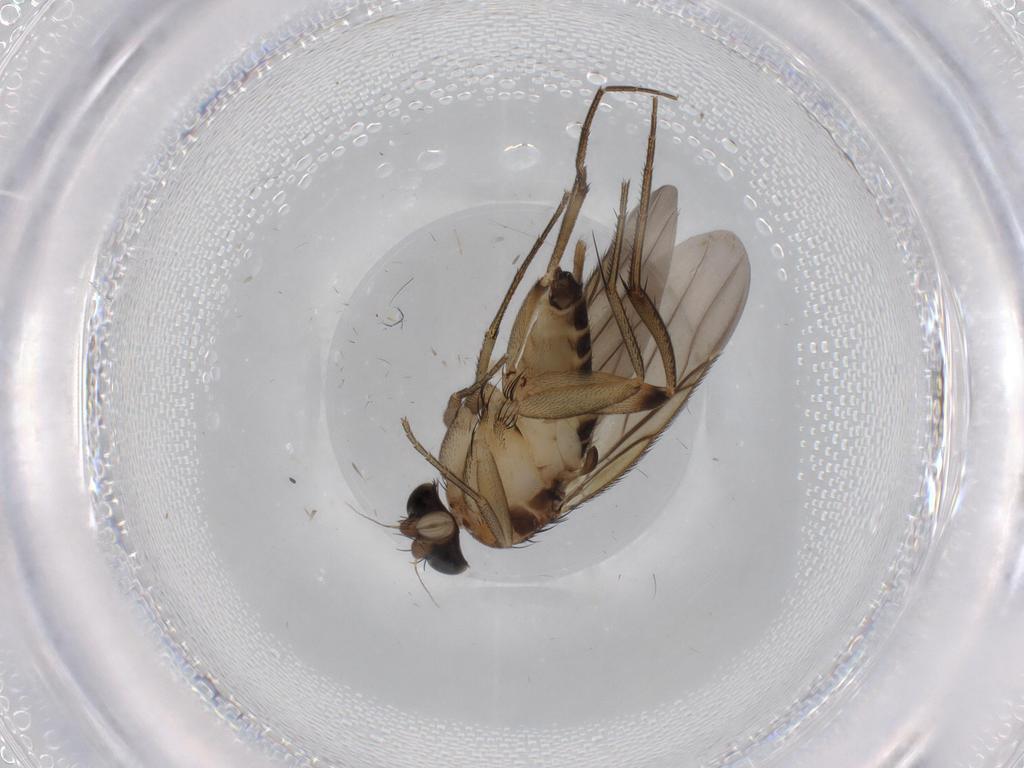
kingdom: Animalia
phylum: Arthropoda
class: Insecta
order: Diptera
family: Phoridae
